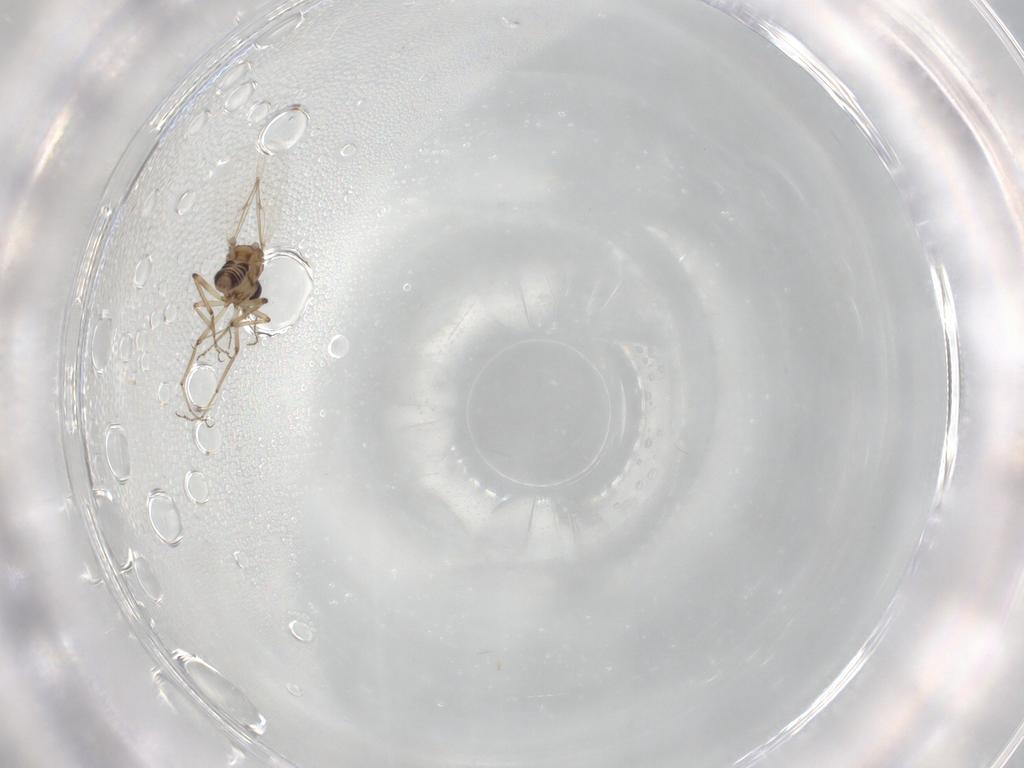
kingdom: Animalia
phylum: Arthropoda
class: Insecta
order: Diptera
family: Ceratopogonidae
